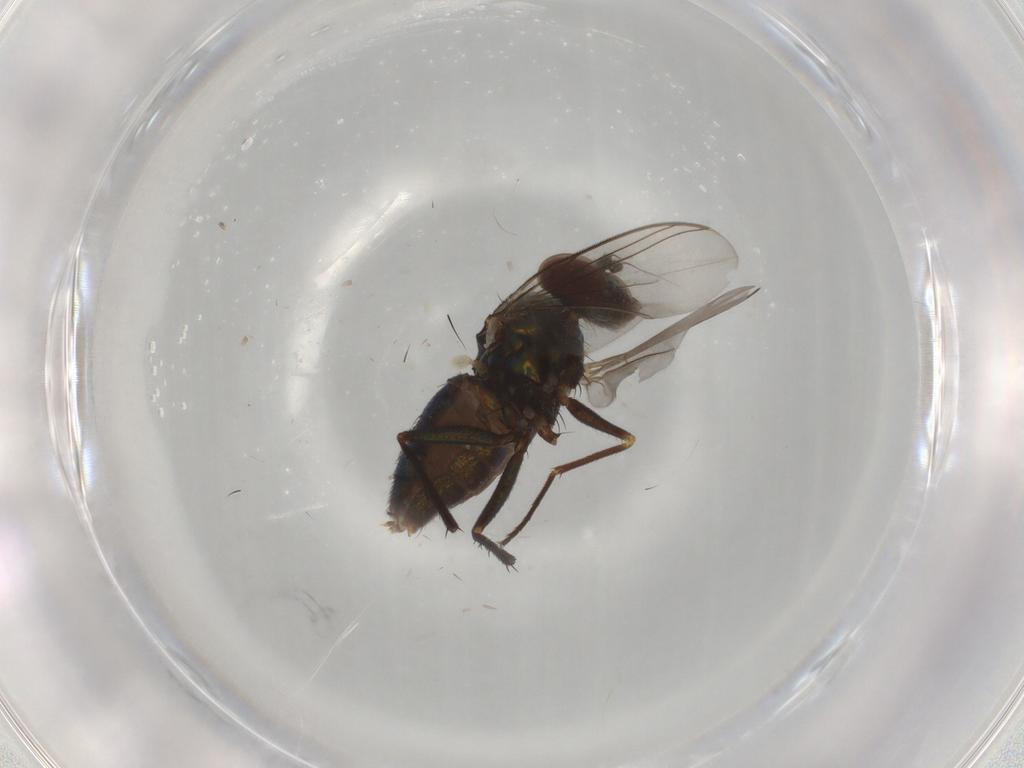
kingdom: Animalia
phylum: Arthropoda
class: Insecta
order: Diptera
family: Dolichopodidae
